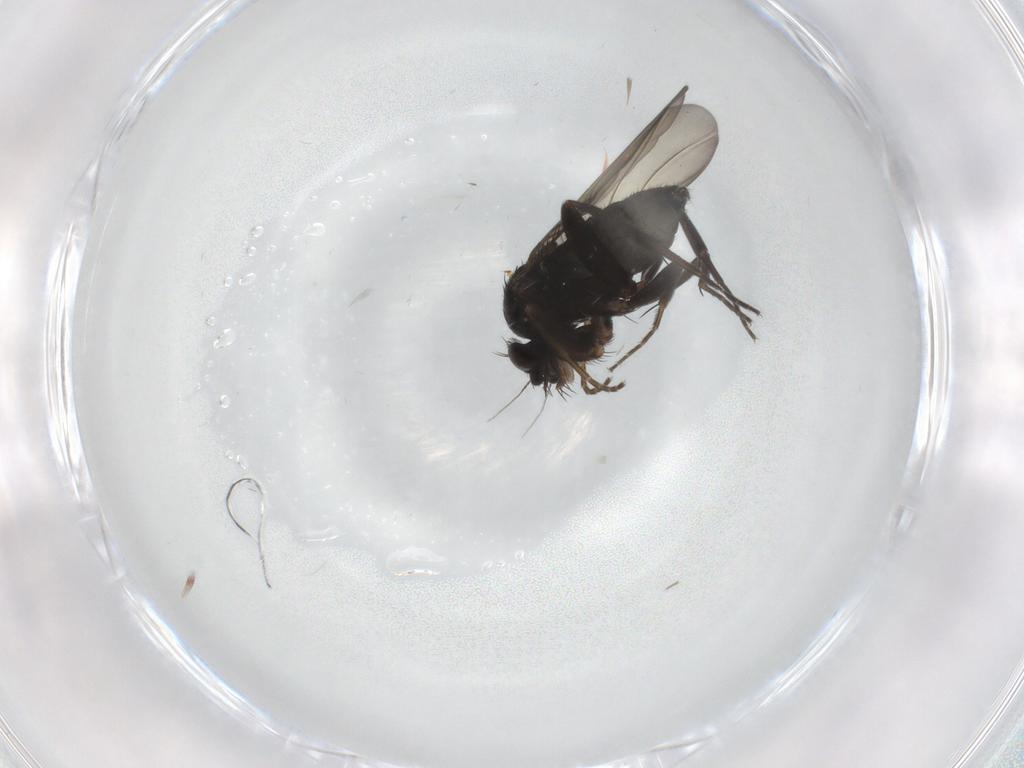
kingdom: Animalia
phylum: Arthropoda
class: Insecta
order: Diptera
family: Phoridae
